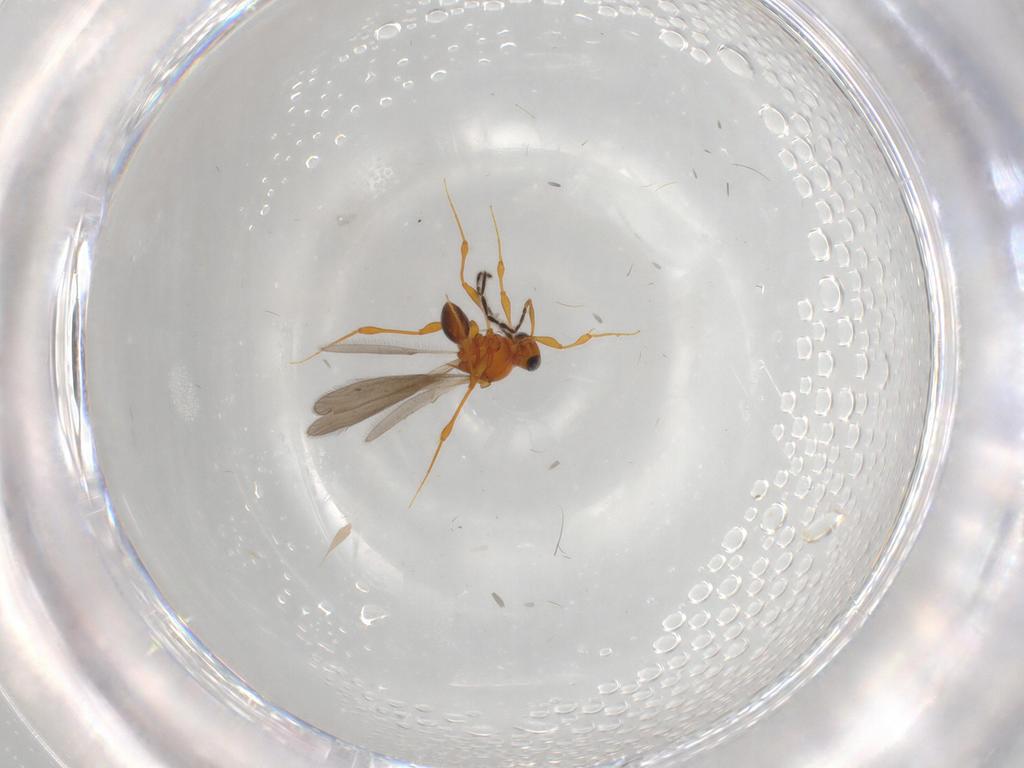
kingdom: Animalia
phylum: Arthropoda
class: Insecta
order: Hymenoptera
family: Platygastridae
